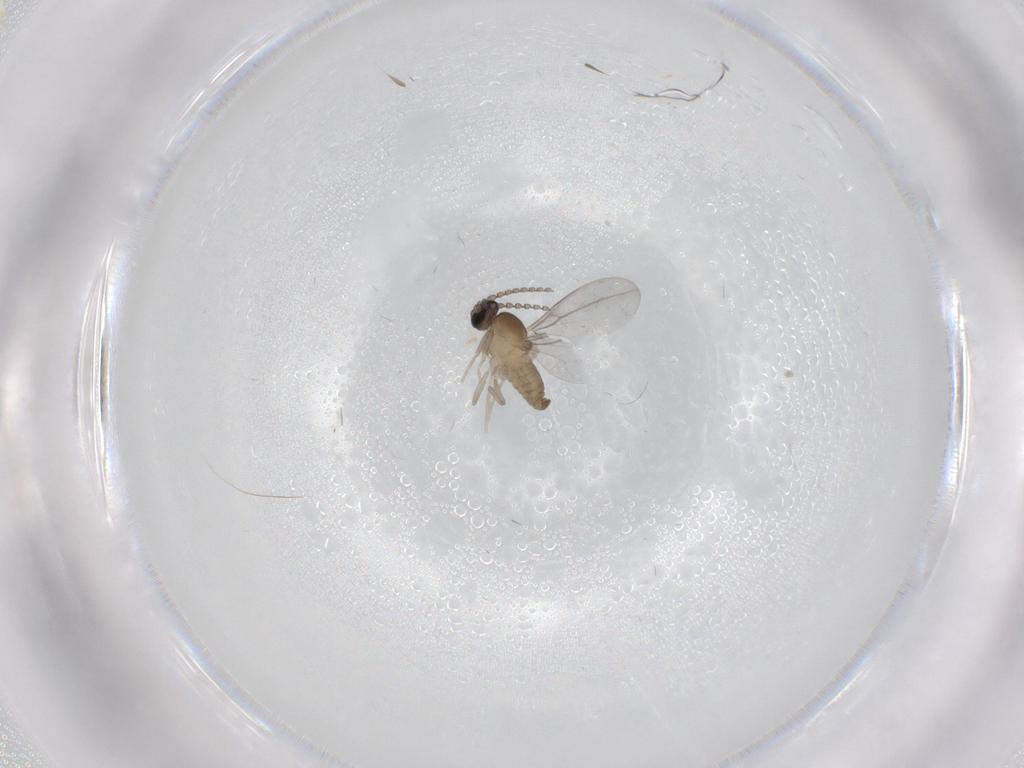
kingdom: Animalia
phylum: Arthropoda
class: Insecta
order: Diptera
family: Cecidomyiidae
